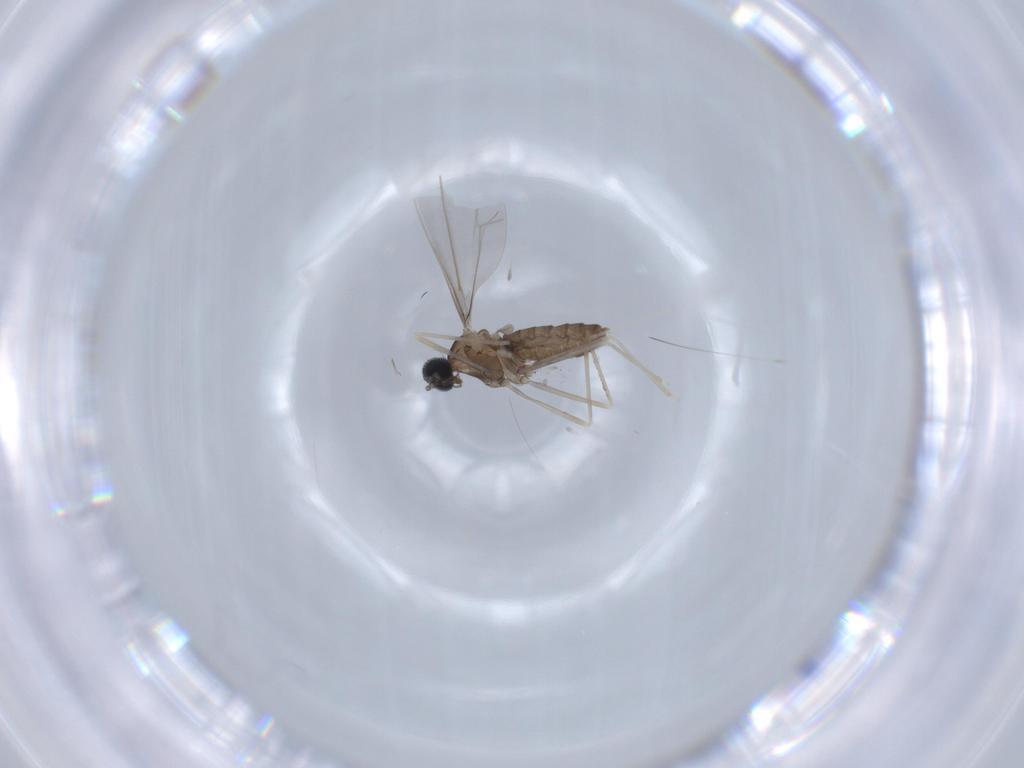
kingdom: Animalia
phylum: Arthropoda
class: Insecta
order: Diptera
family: Cecidomyiidae
